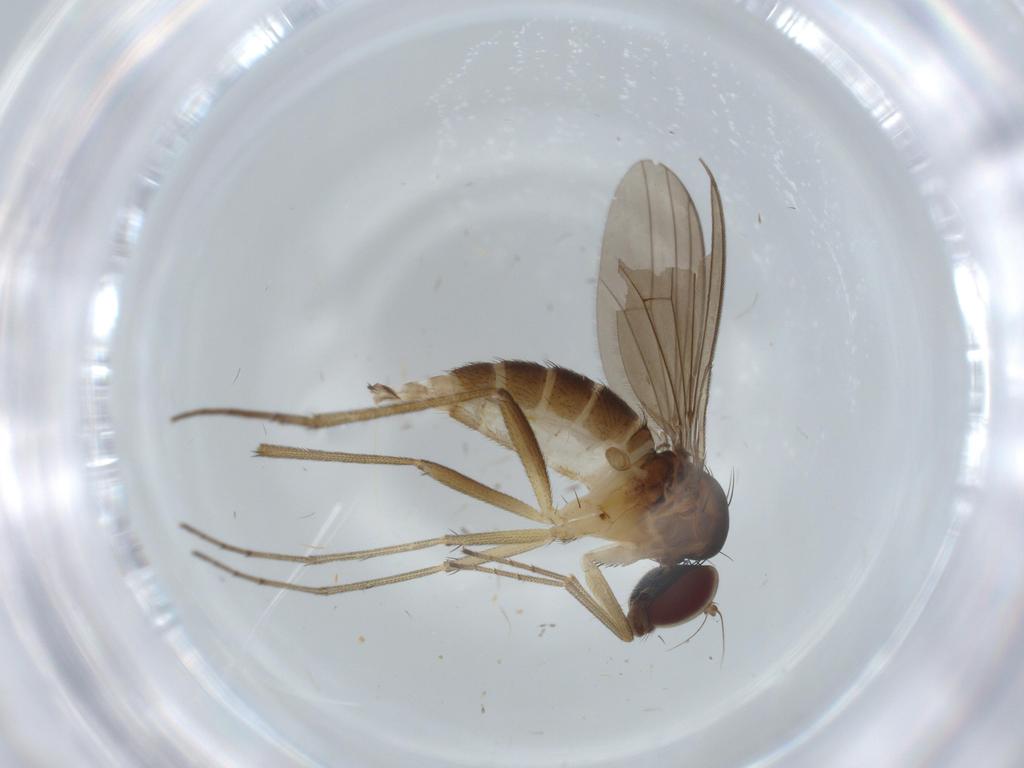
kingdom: Animalia
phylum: Arthropoda
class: Insecta
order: Diptera
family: Dolichopodidae
